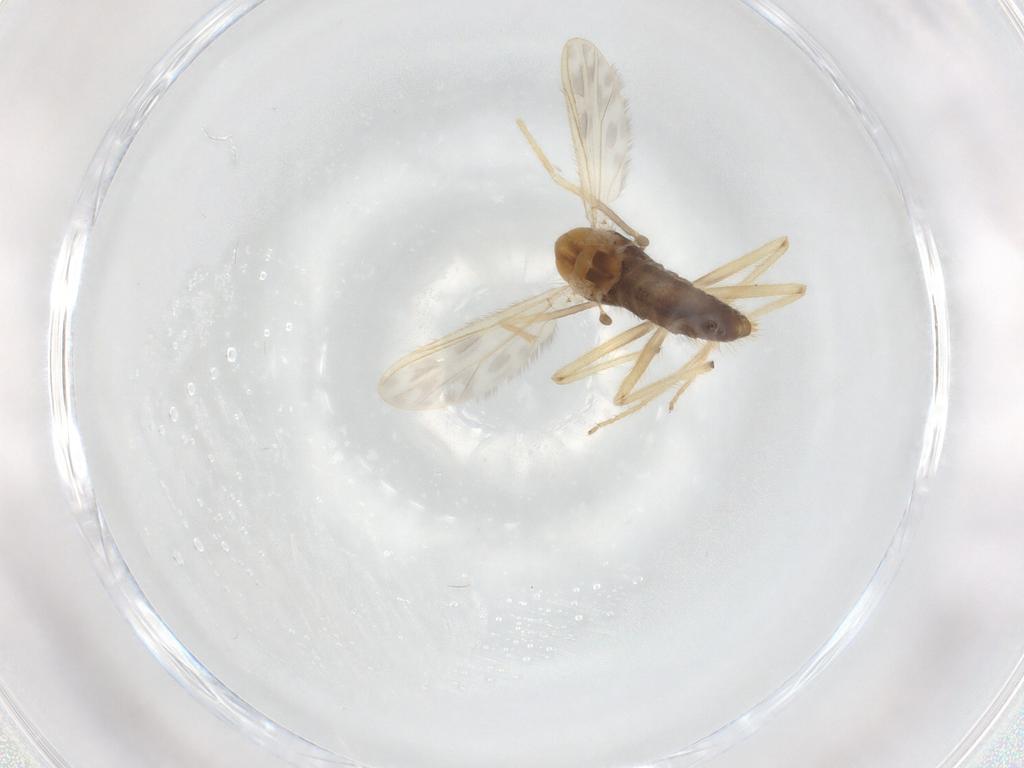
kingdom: Animalia
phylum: Arthropoda
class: Insecta
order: Diptera
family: Chironomidae
